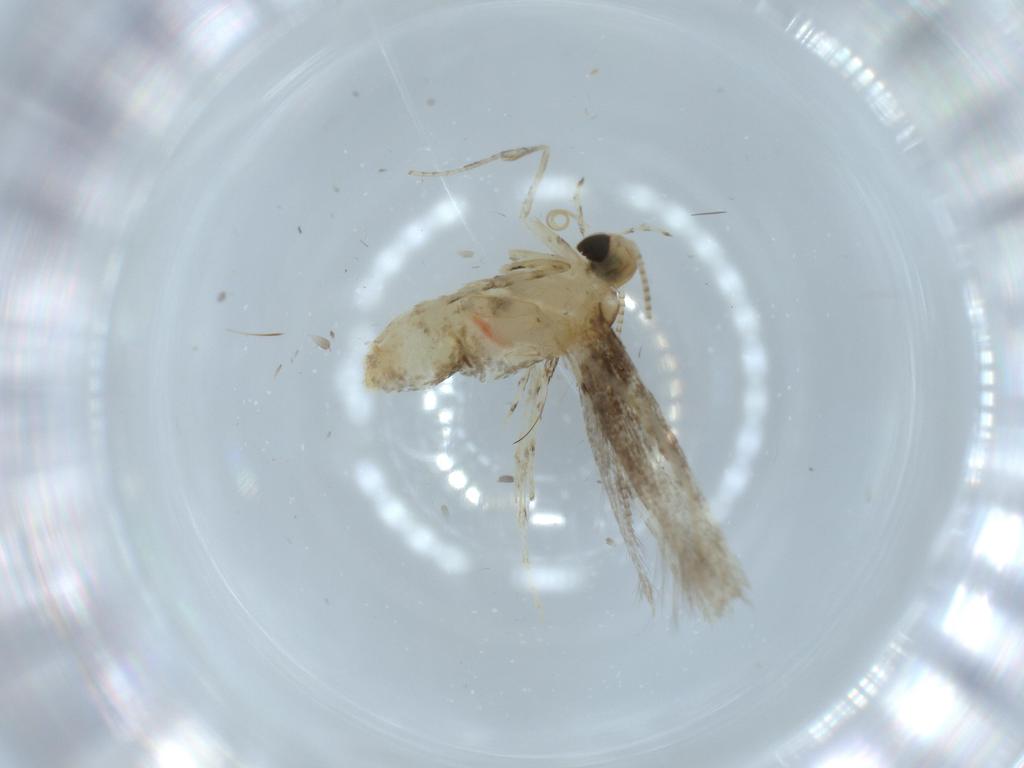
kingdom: Animalia
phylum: Arthropoda
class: Insecta
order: Lepidoptera
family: Gracillariidae
